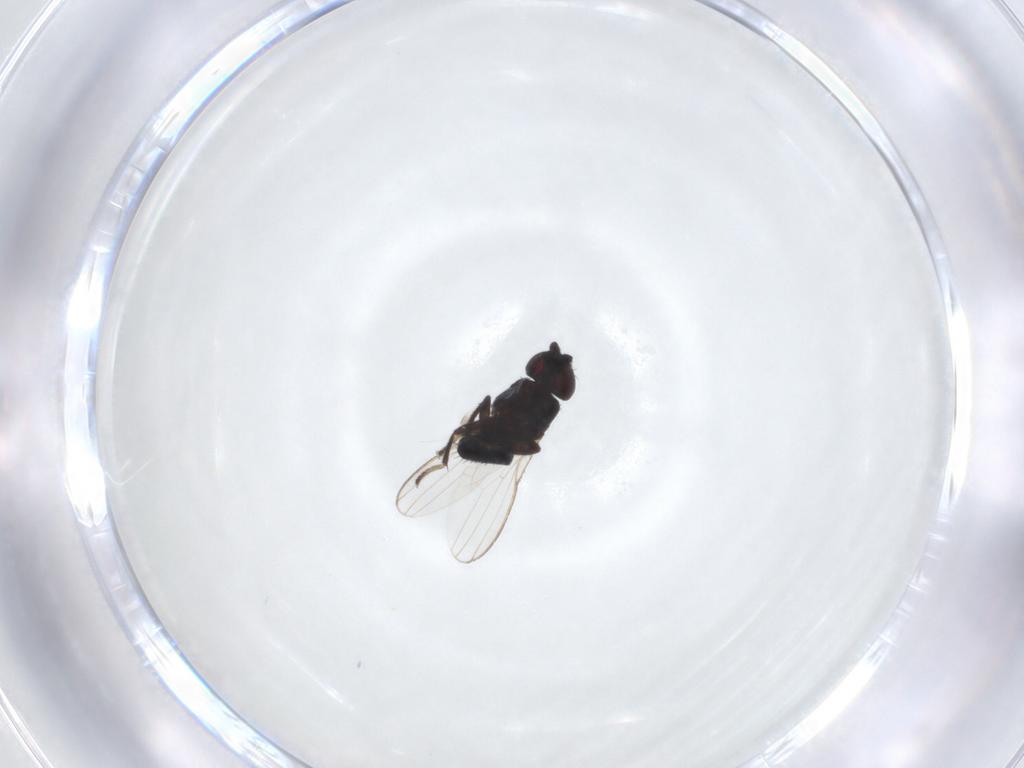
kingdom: Animalia
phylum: Arthropoda
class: Insecta
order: Diptera
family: Milichiidae
